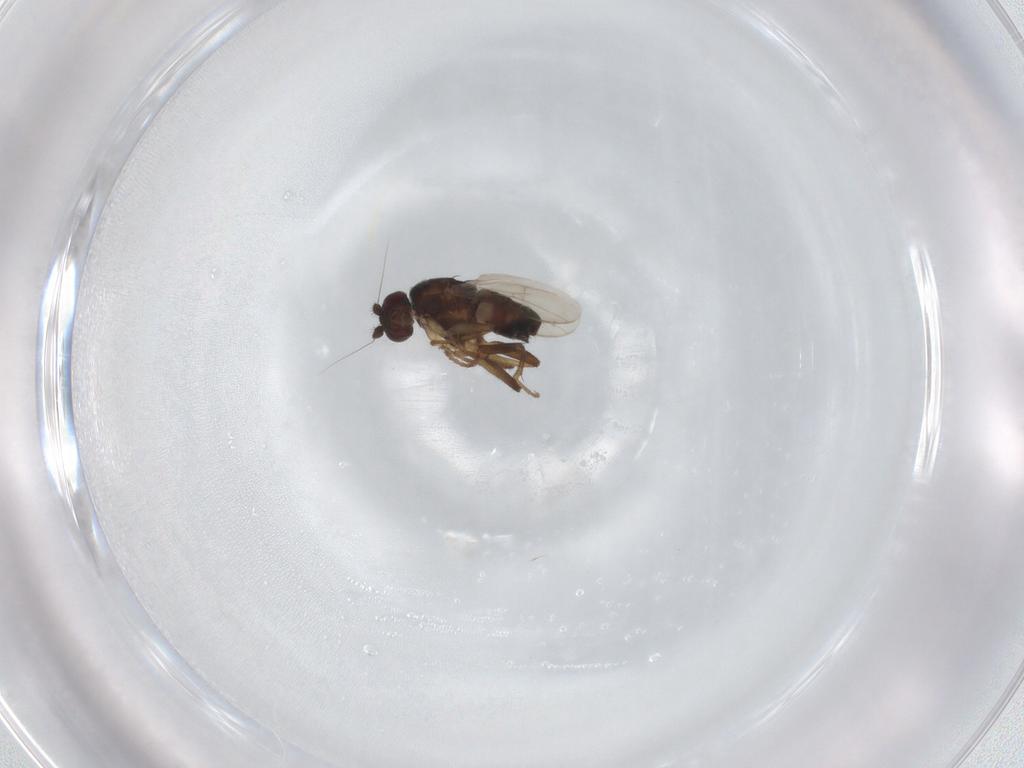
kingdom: Animalia
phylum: Arthropoda
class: Insecta
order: Diptera
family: Sphaeroceridae
